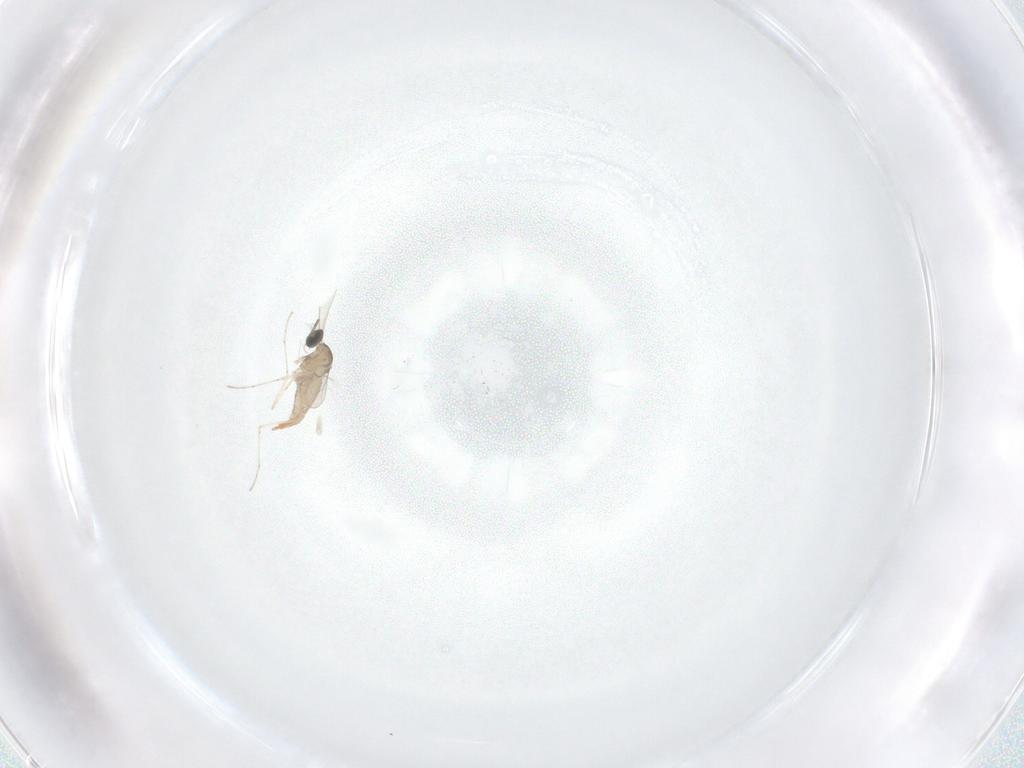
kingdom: Animalia
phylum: Arthropoda
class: Insecta
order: Diptera
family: Cecidomyiidae
